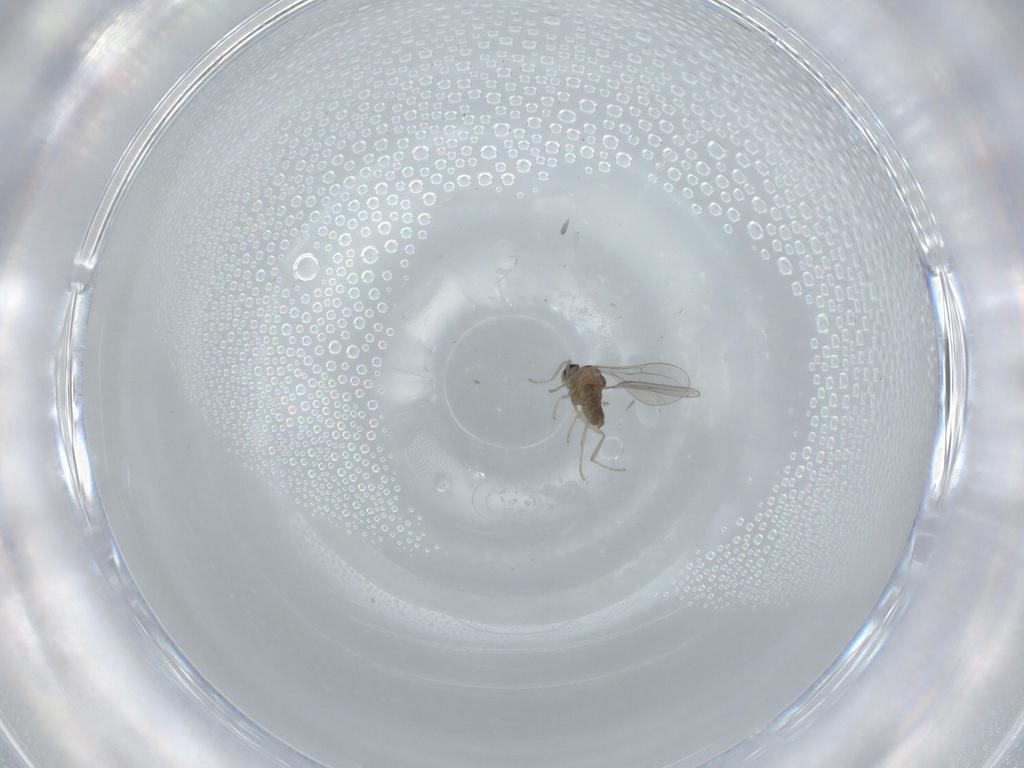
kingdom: Animalia
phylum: Arthropoda
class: Insecta
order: Diptera
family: Cecidomyiidae
